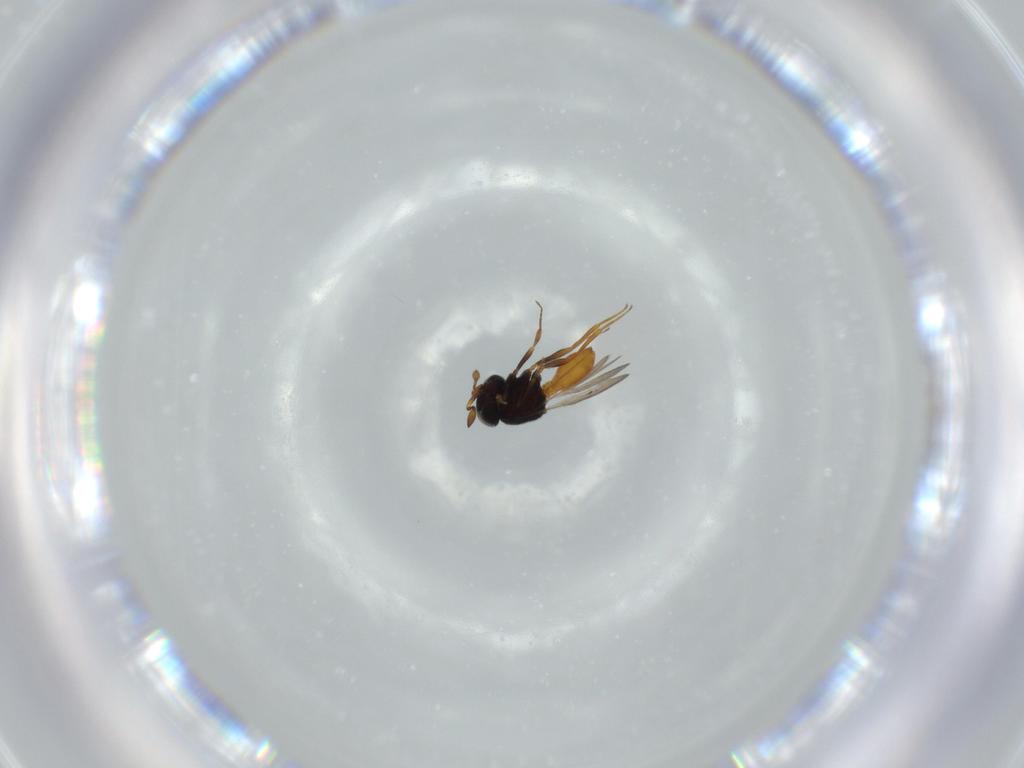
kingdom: Animalia
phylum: Arthropoda
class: Insecta
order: Hymenoptera
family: Scelionidae
